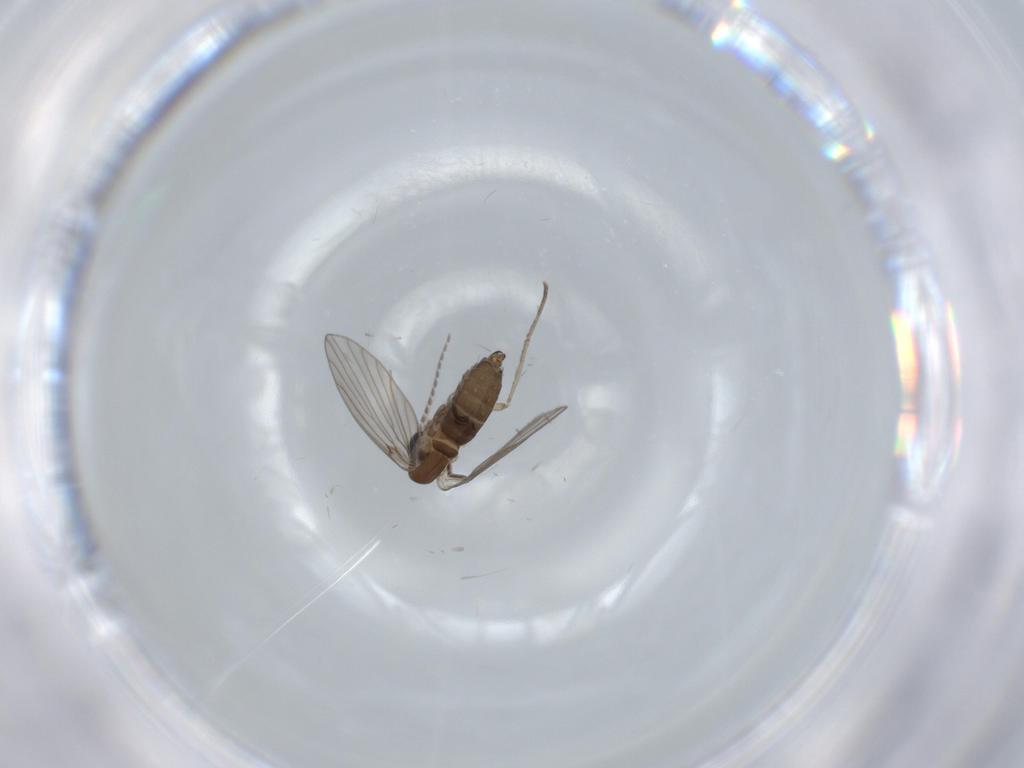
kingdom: Animalia
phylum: Arthropoda
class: Insecta
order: Diptera
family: Psychodidae
